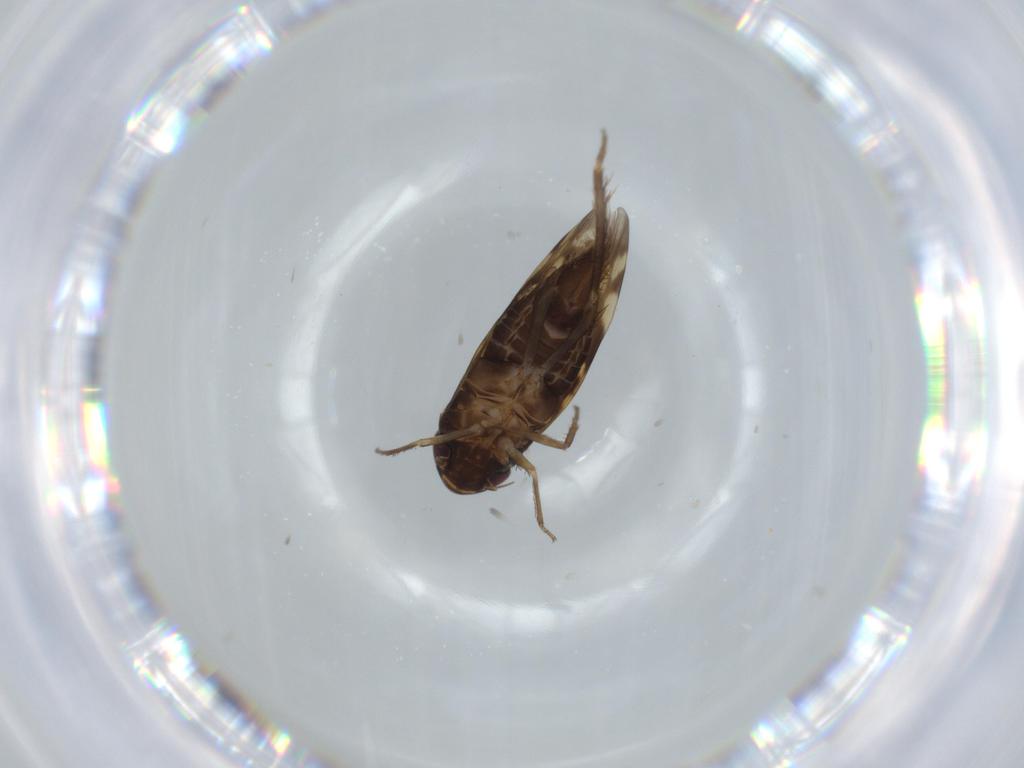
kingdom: Animalia
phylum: Arthropoda
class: Insecta
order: Hemiptera
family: Cicadellidae
